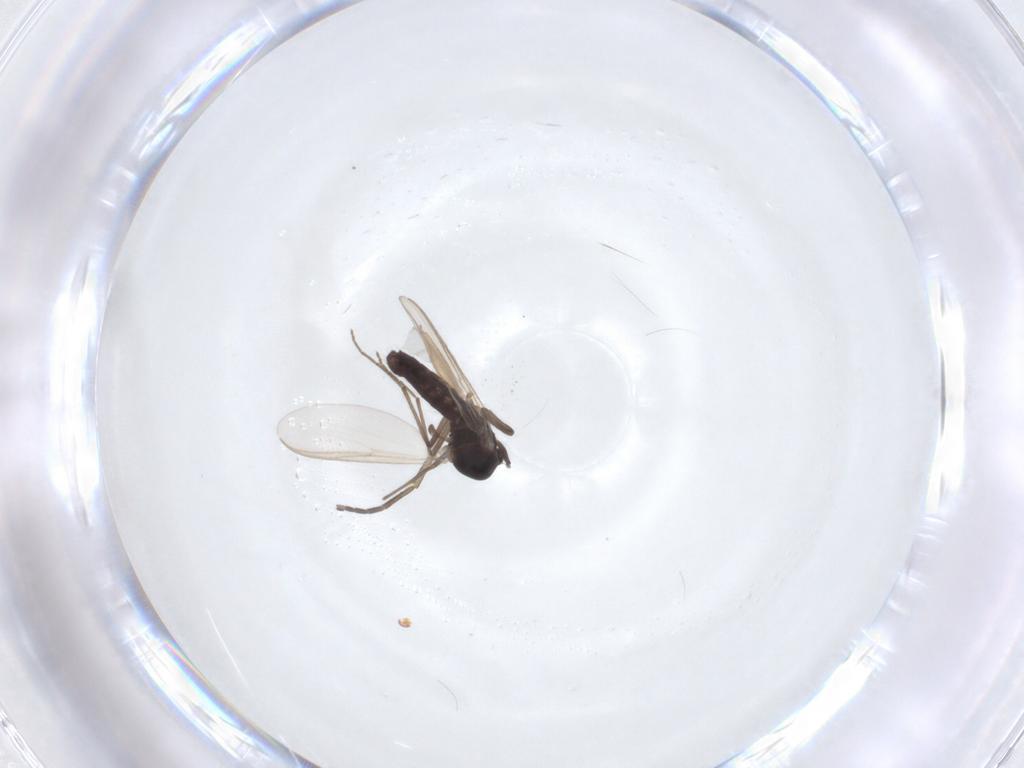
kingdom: Animalia
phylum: Arthropoda
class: Insecta
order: Diptera
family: Sciaridae
